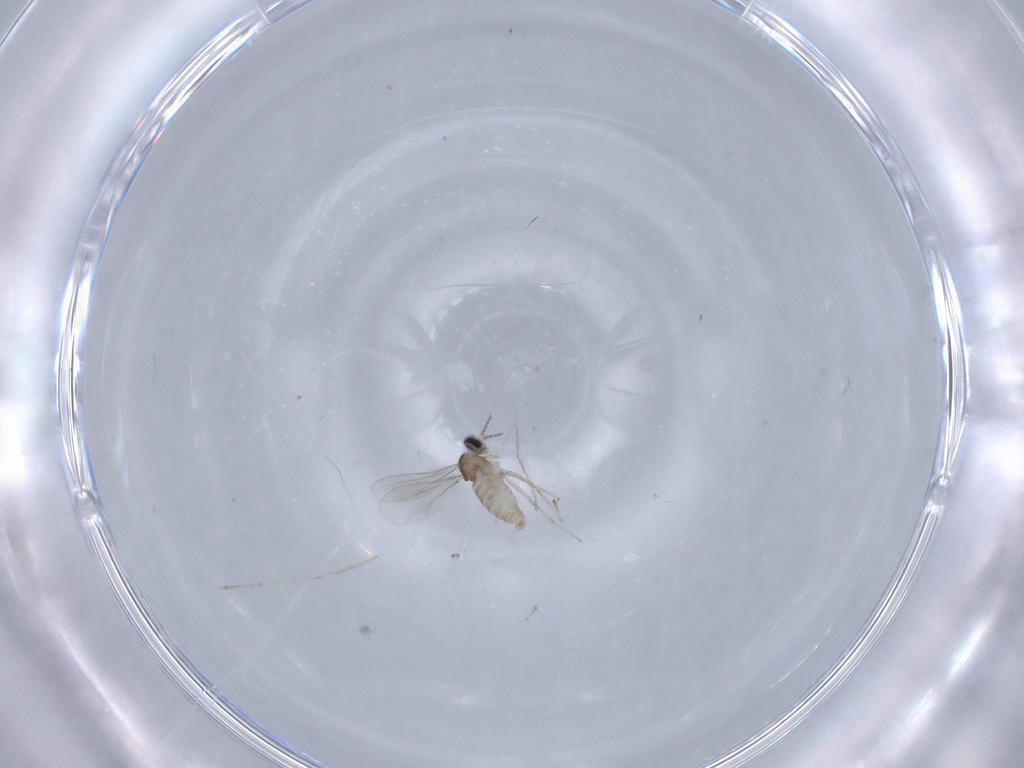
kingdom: Animalia
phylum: Arthropoda
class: Insecta
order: Diptera
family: Cecidomyiidae
